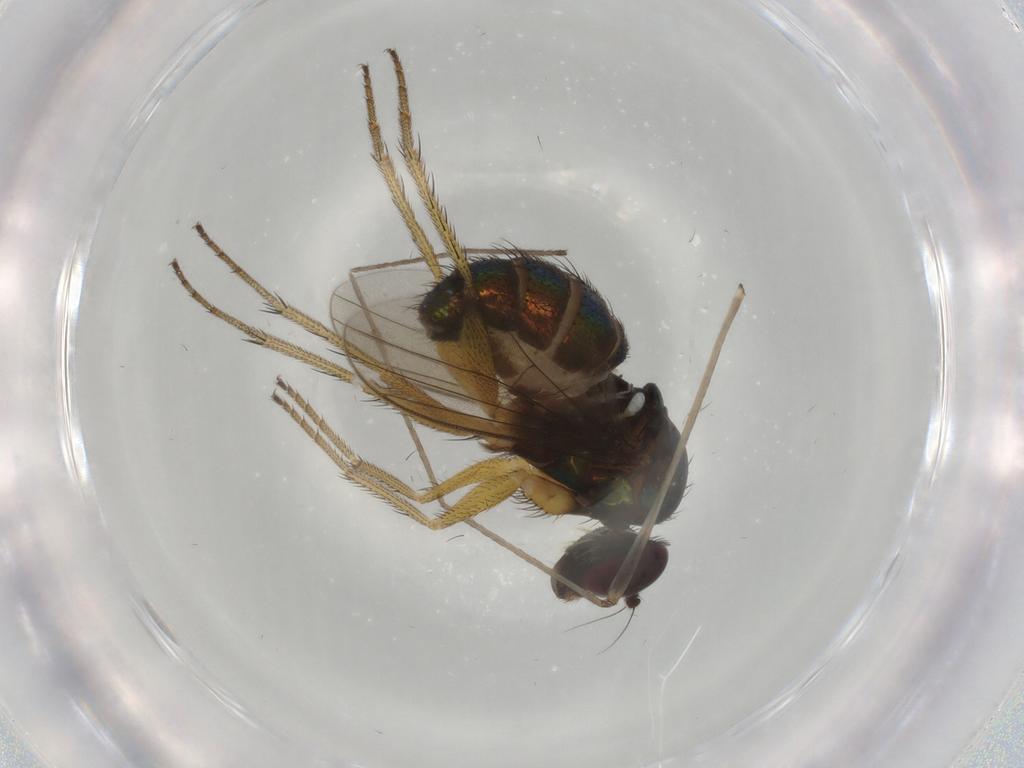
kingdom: Animalia
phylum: Arthropoda
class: Insecta
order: Diptera
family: Dolichopodidae
